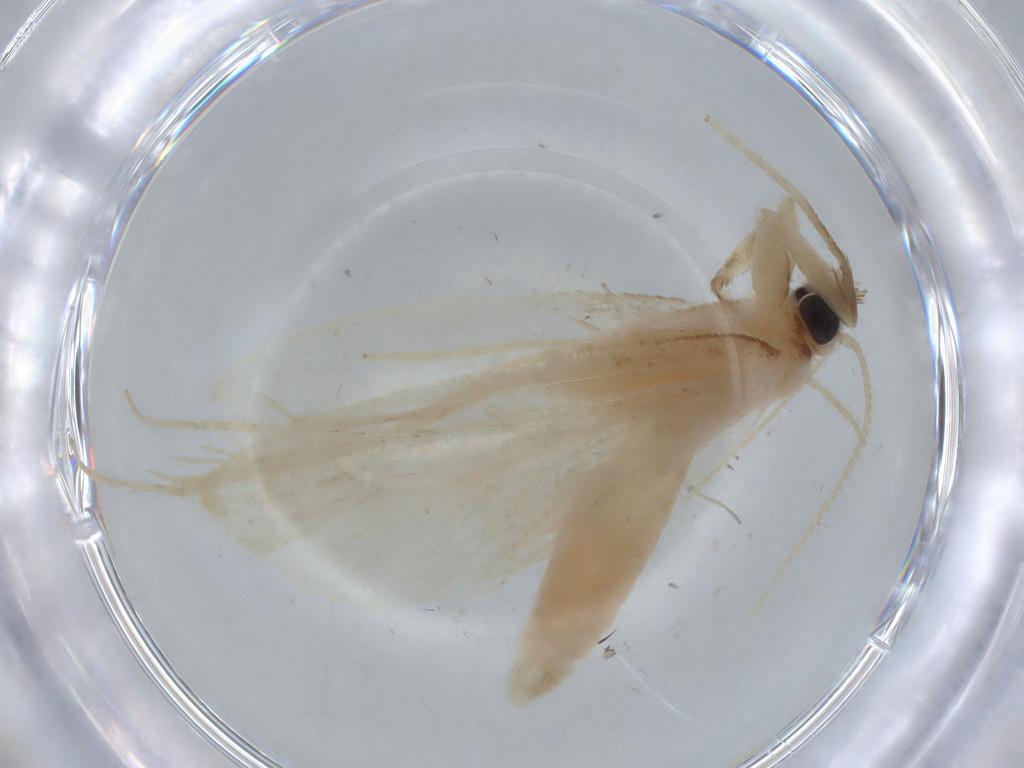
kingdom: Animalia
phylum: Arthropoda
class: Insecta
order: Lepidoptera
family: Crambidae
